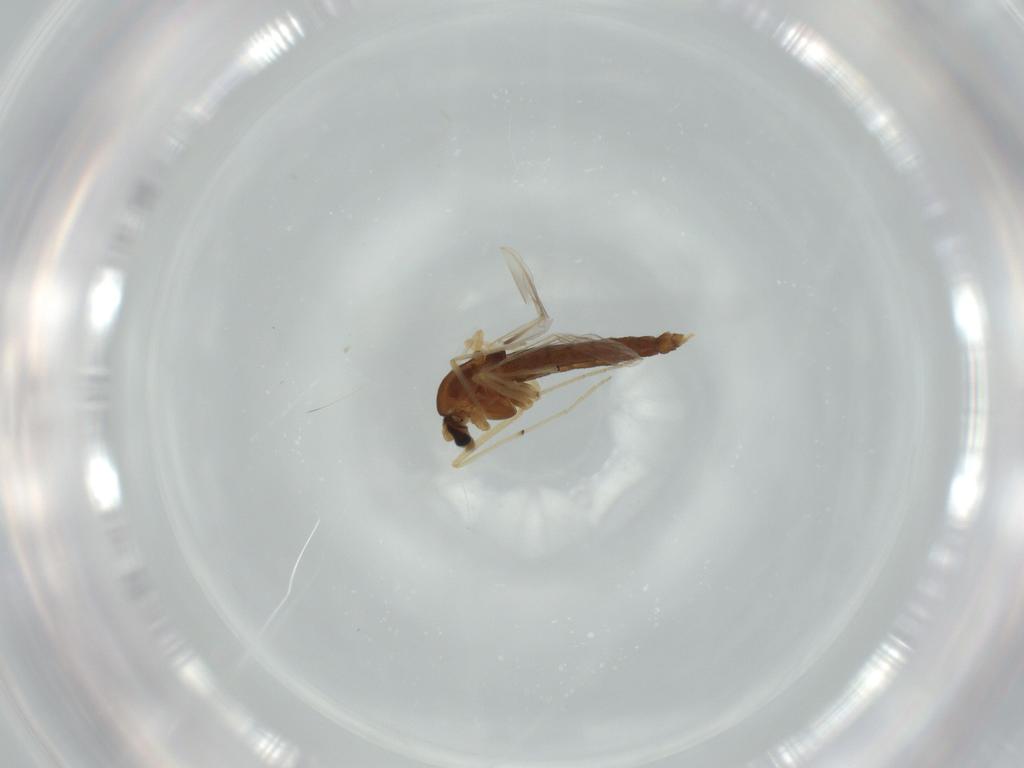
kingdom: Animalia
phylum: Arthropoda
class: Insecta
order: Diptera
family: Chironomidae
